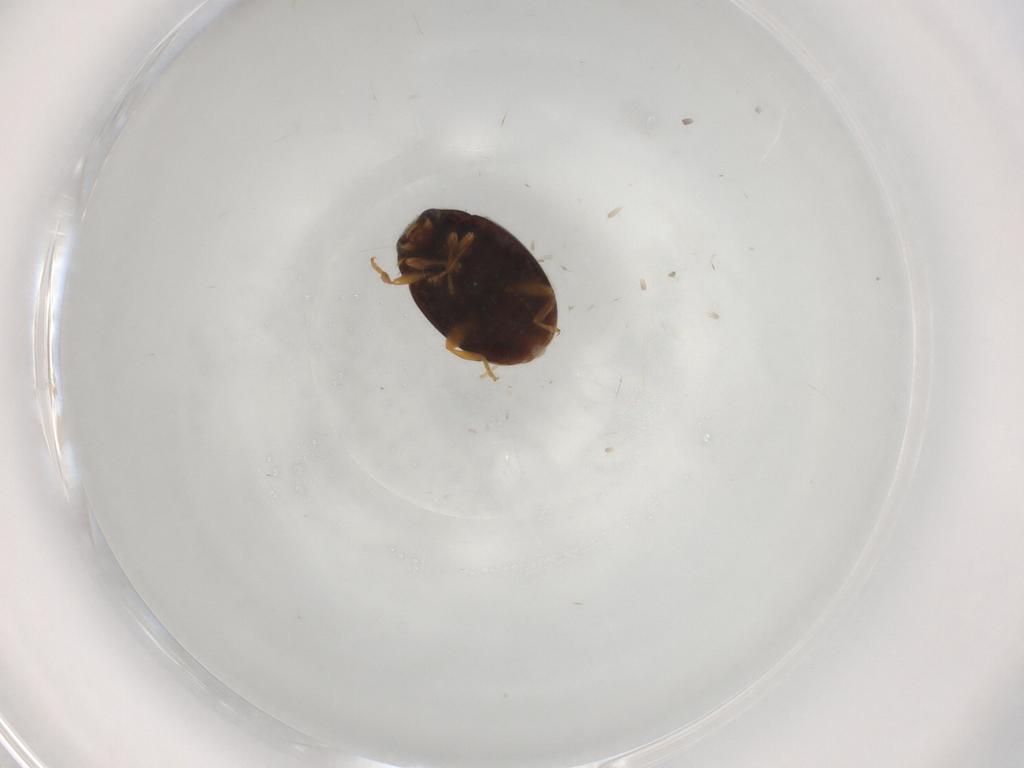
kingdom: Animalia
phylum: Arthropoda
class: Insecta
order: Coleoptera
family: Coccinellidae
